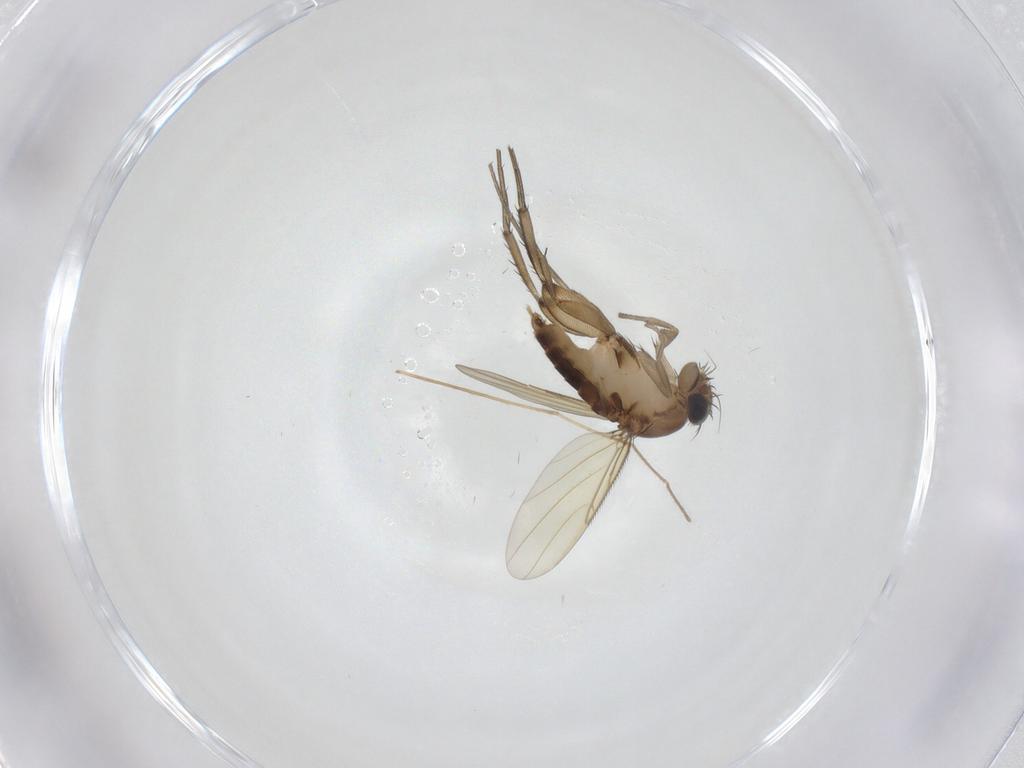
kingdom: Animalia
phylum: Arthropoda
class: Insecta
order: Diptera
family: Phoridae
